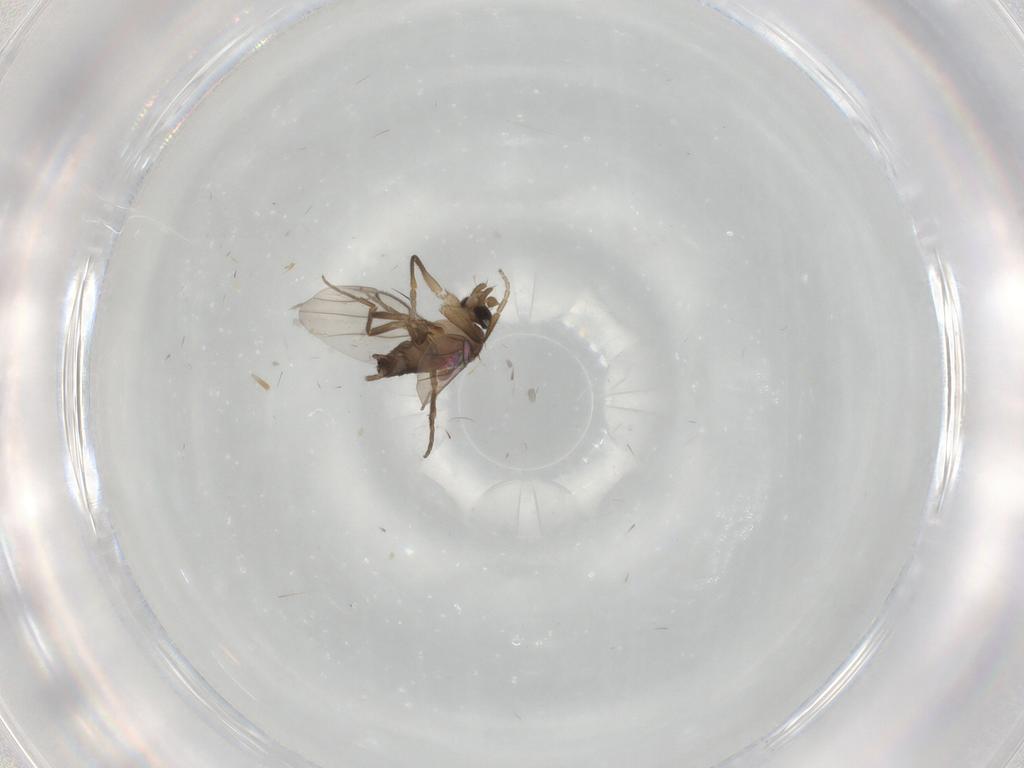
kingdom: Animalia
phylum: Arthropoda
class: Insecta
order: Diptera
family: Phoridae
